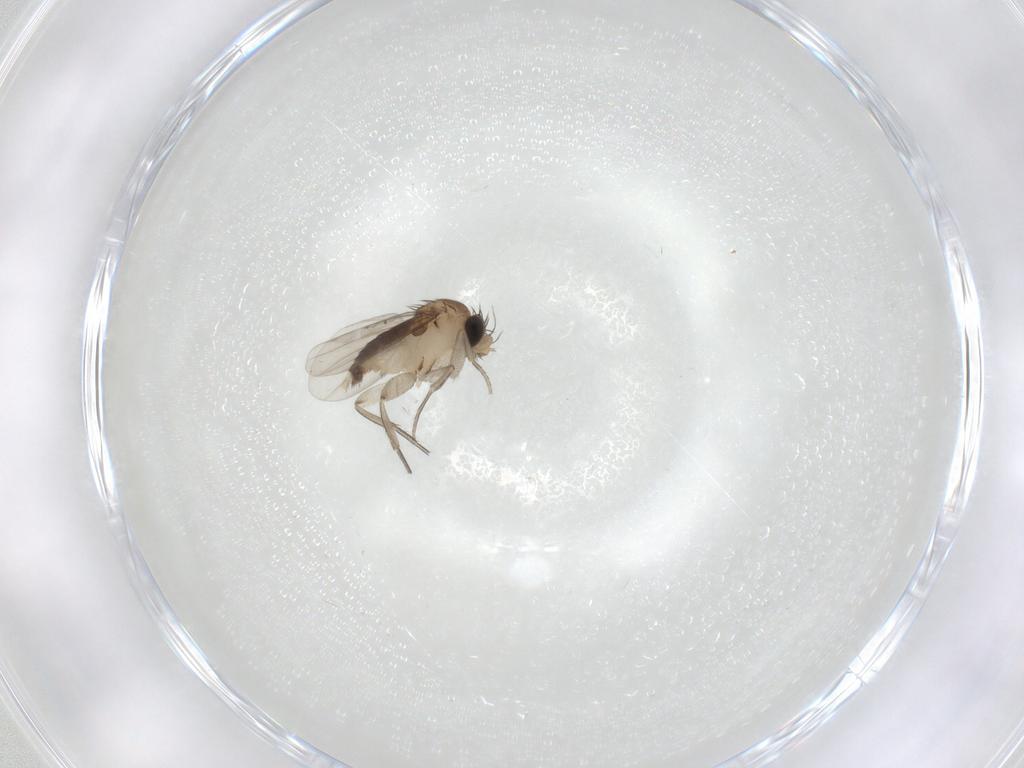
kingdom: Animalia
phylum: Arthropoda
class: Insecta
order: Diptera
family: Phoridae
